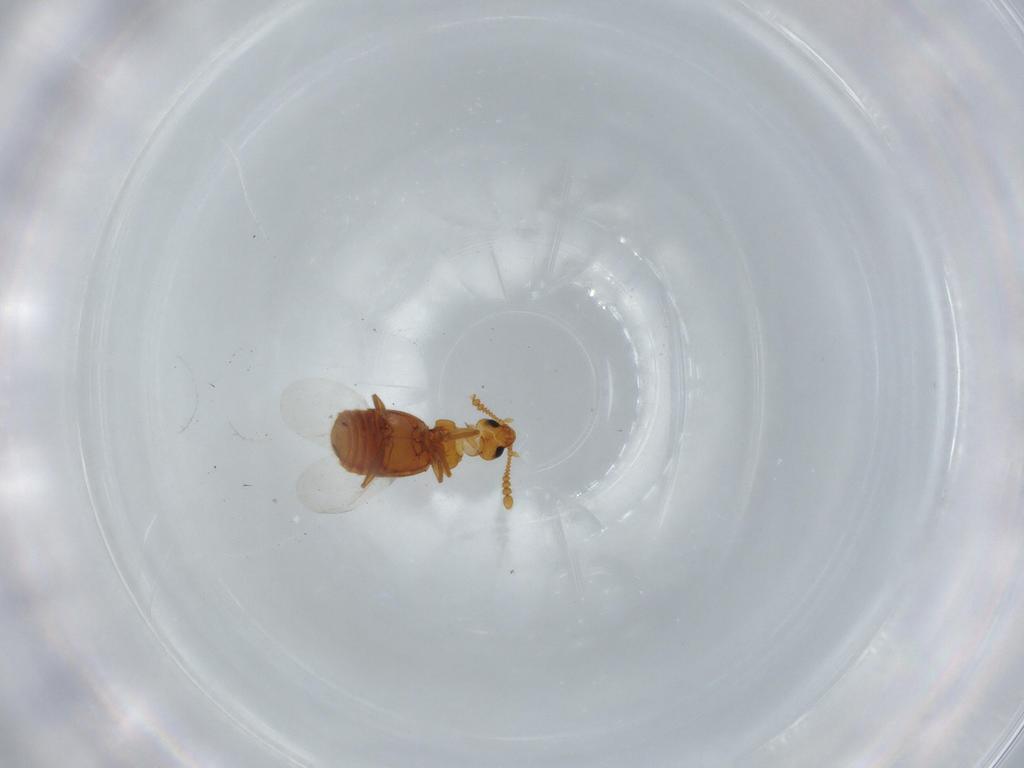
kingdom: Animalia
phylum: Arthropoda
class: Insecta
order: Coleoptera
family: Staphylinidae
